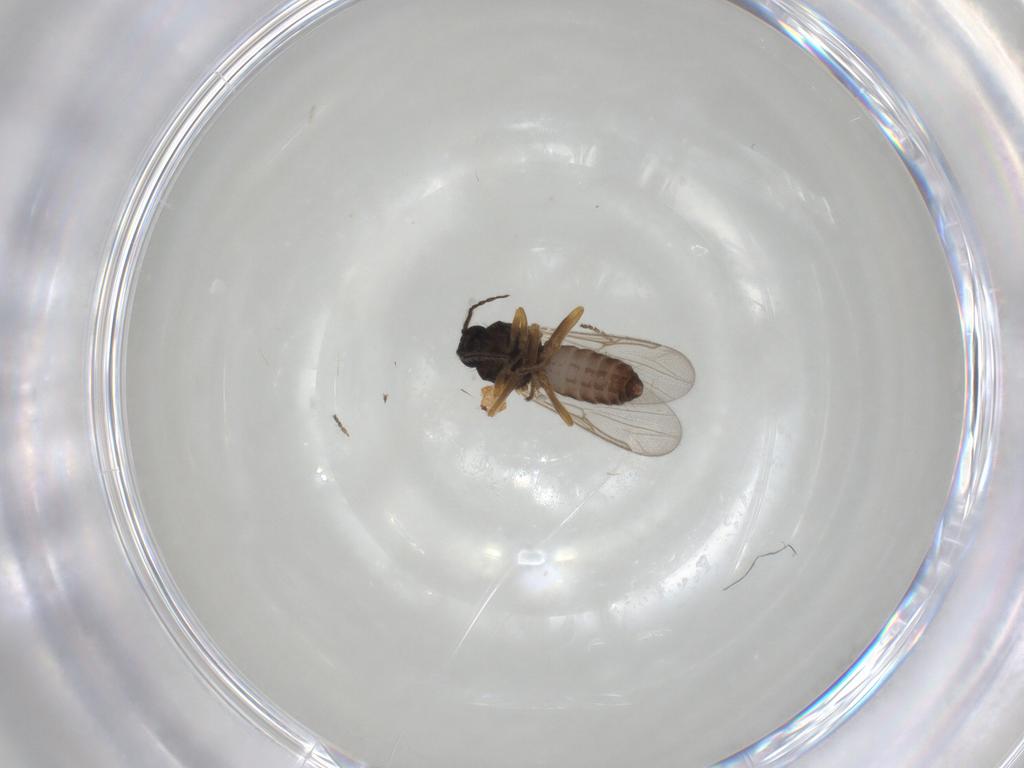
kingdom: Animalia
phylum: Arthropoda
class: Insecta
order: Diptera
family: Ceratopogonidae
